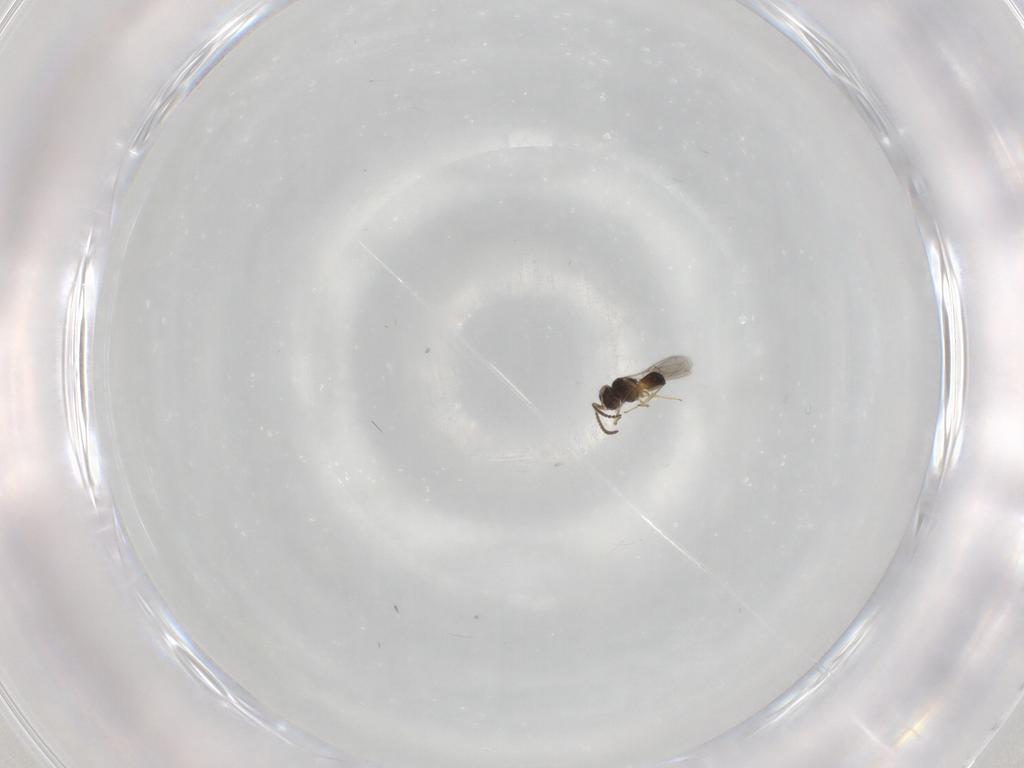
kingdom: Animalia
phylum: Arthropoda
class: Insecta
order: Hymenoptera
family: Scelionidae
